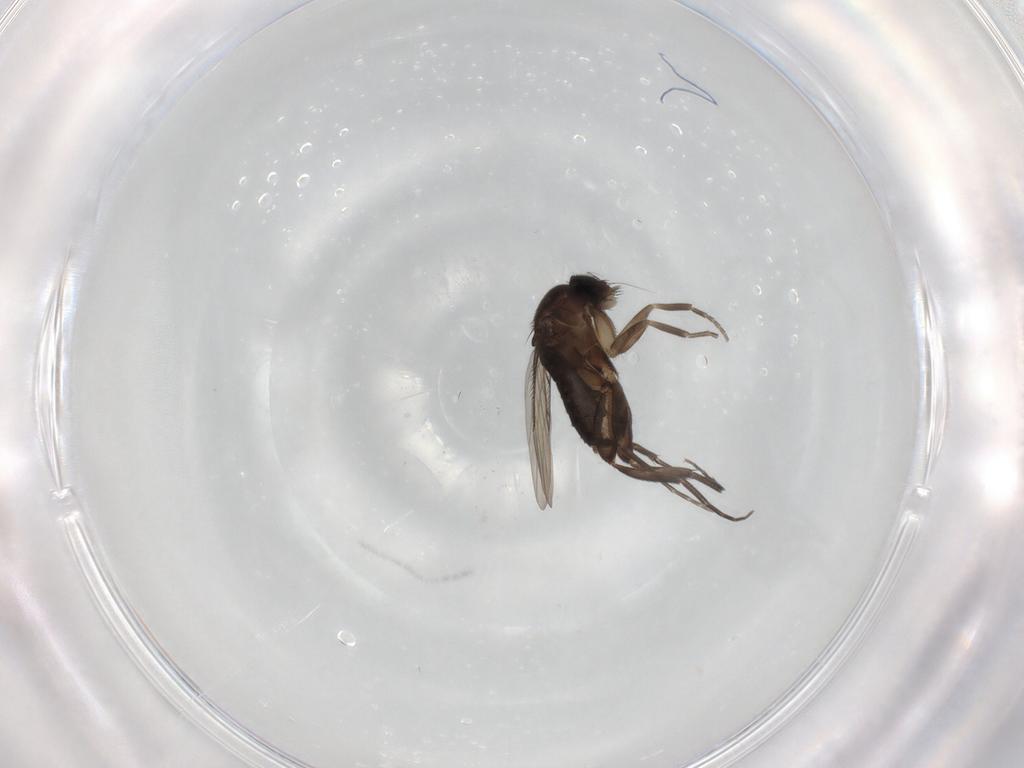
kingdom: Animalia
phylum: Arthropoda
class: Insecta
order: Diptera
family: Phoridae
